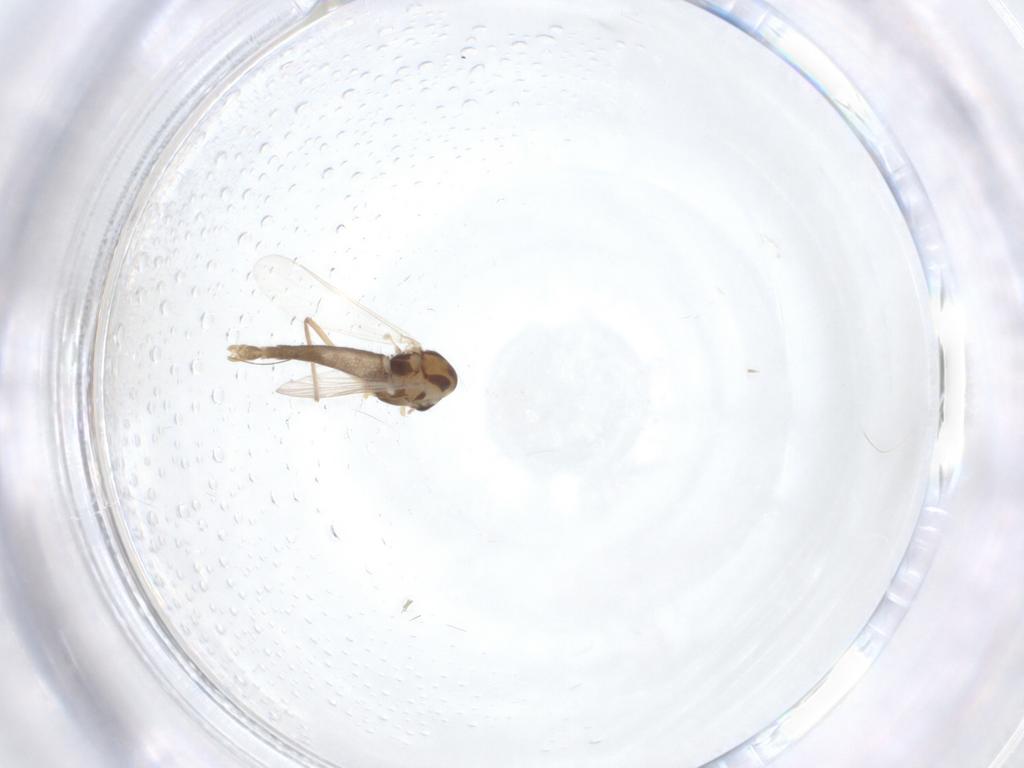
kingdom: Animalia
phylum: Arthropoda
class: Insecta
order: Diptera
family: Chironomidae
